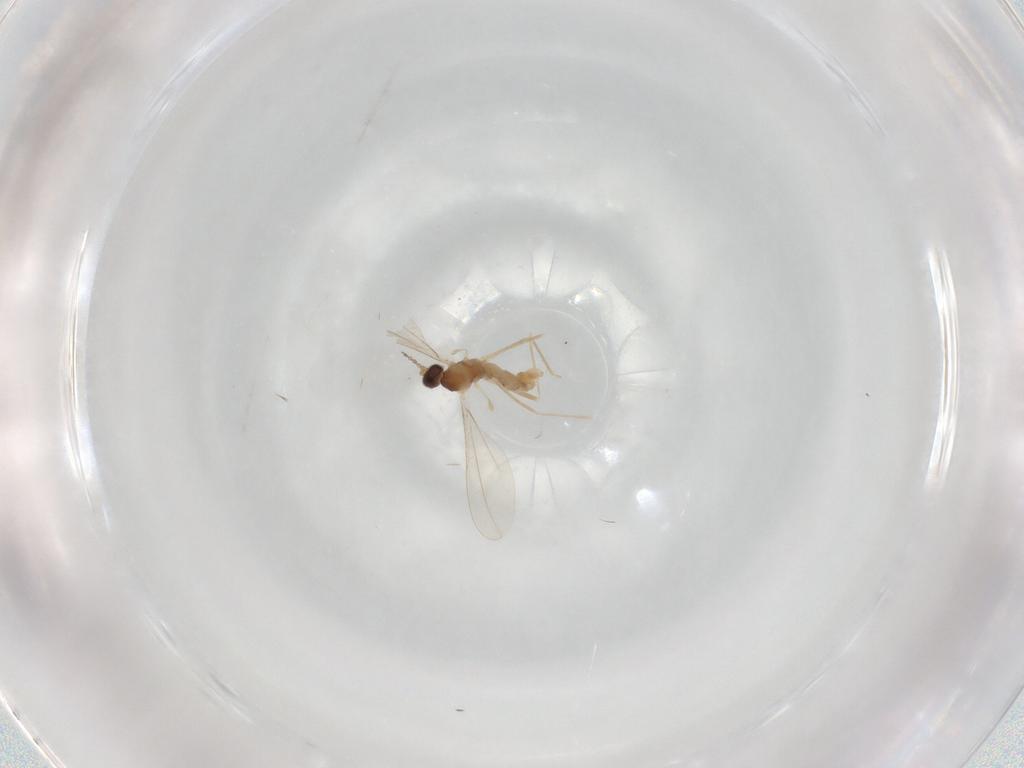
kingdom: Animalia
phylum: Arthropoda
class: Insecta
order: Diptera
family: Cecidomyiidae
